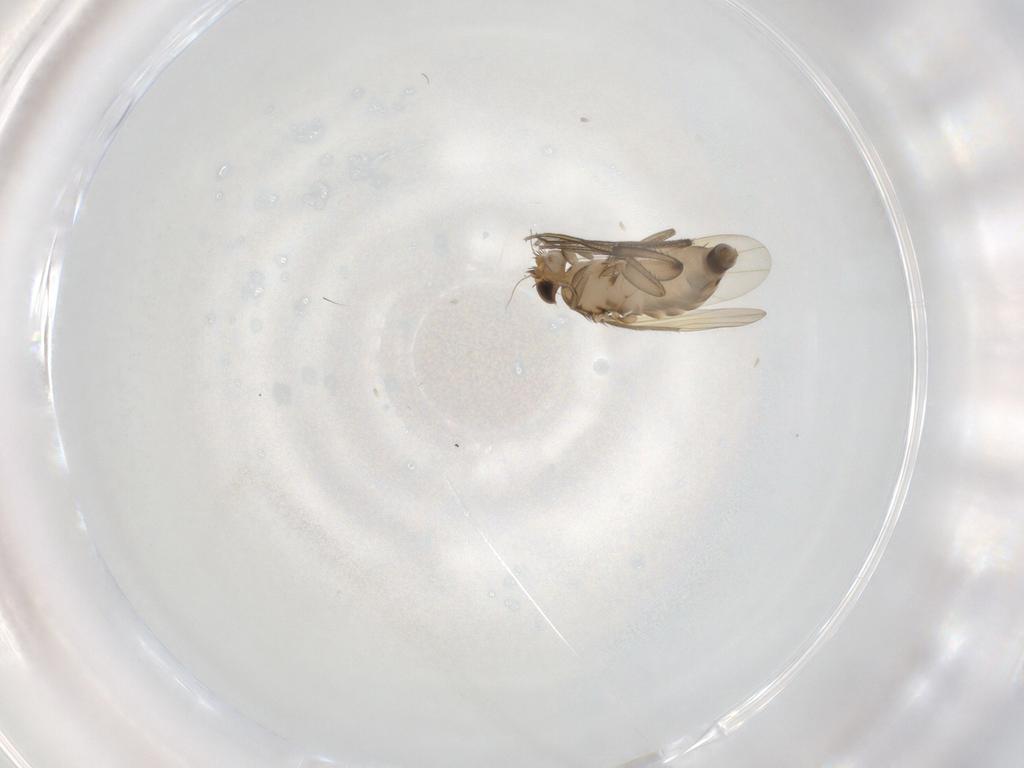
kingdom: Animalia
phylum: Arthropoda
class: Insecta
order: Diptera
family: Phoridae
